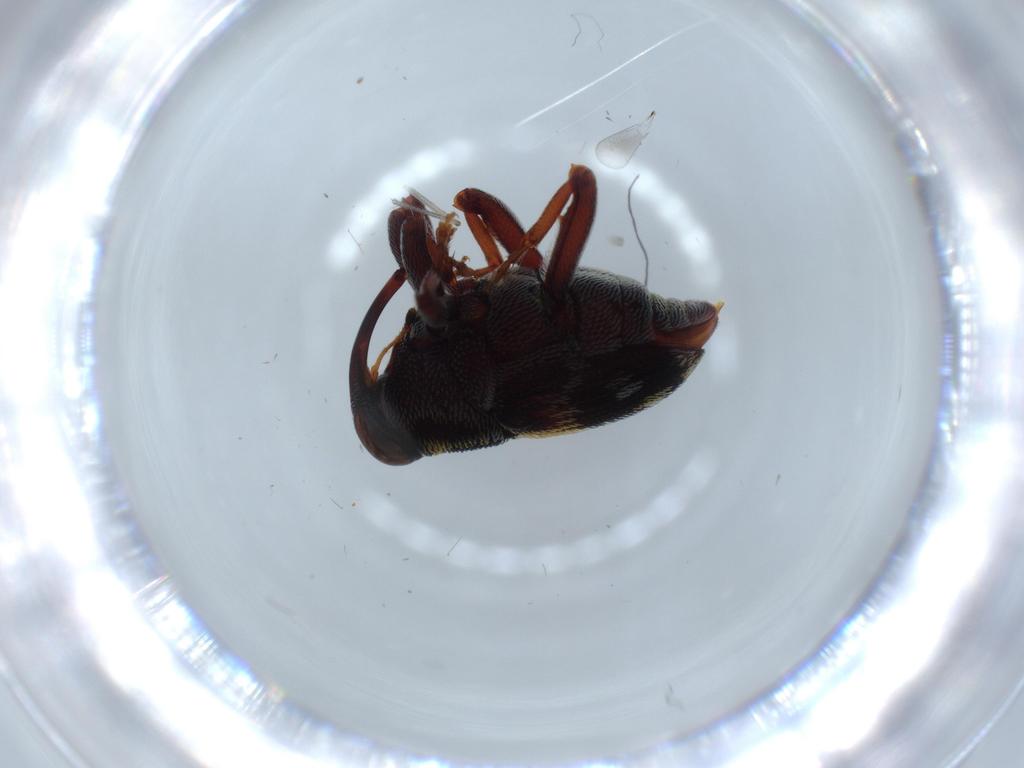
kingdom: Animalia
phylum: Arthropoda
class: Insecta
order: Coleoptera
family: Curculionidae
